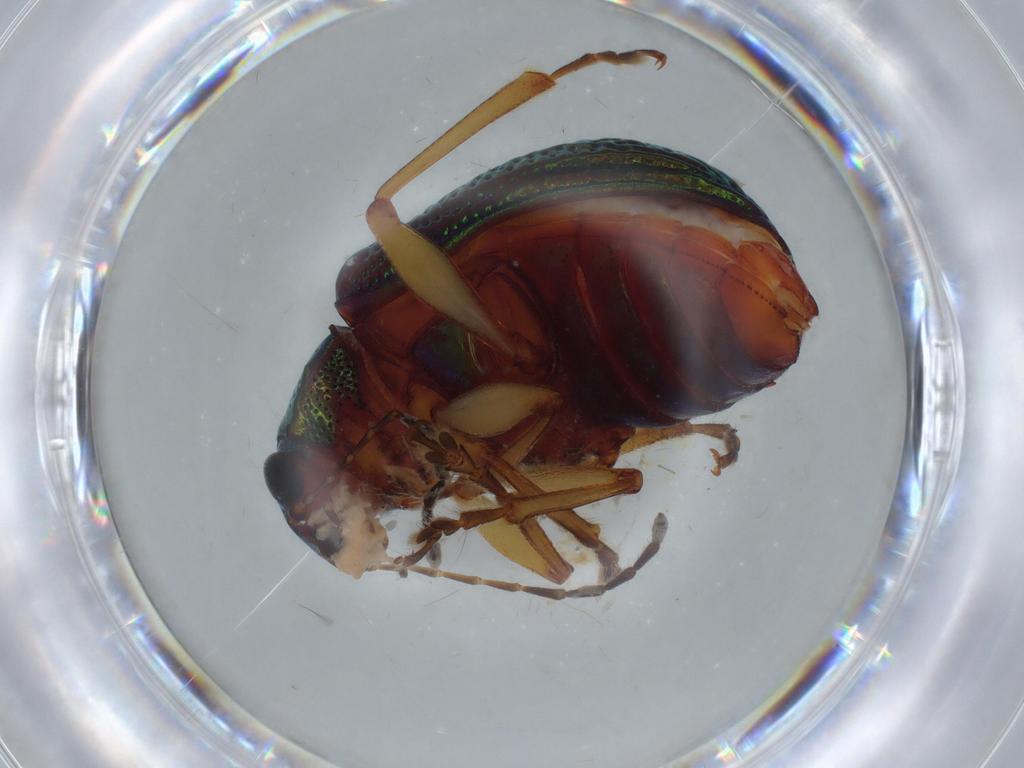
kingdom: Animalia
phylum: Arthropoda
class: Insecta
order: Coleoptera
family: Chrysomelidae
